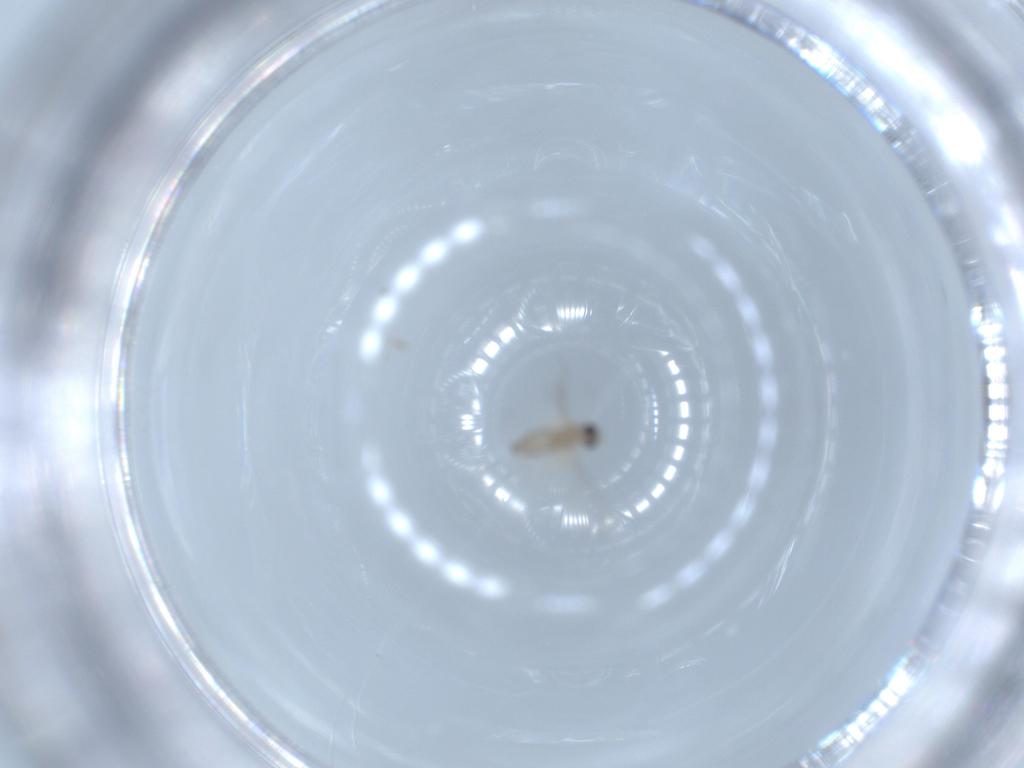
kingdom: Animalia
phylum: Arthropoda
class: Insecta
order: Diptera
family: Cecidomyiidae
